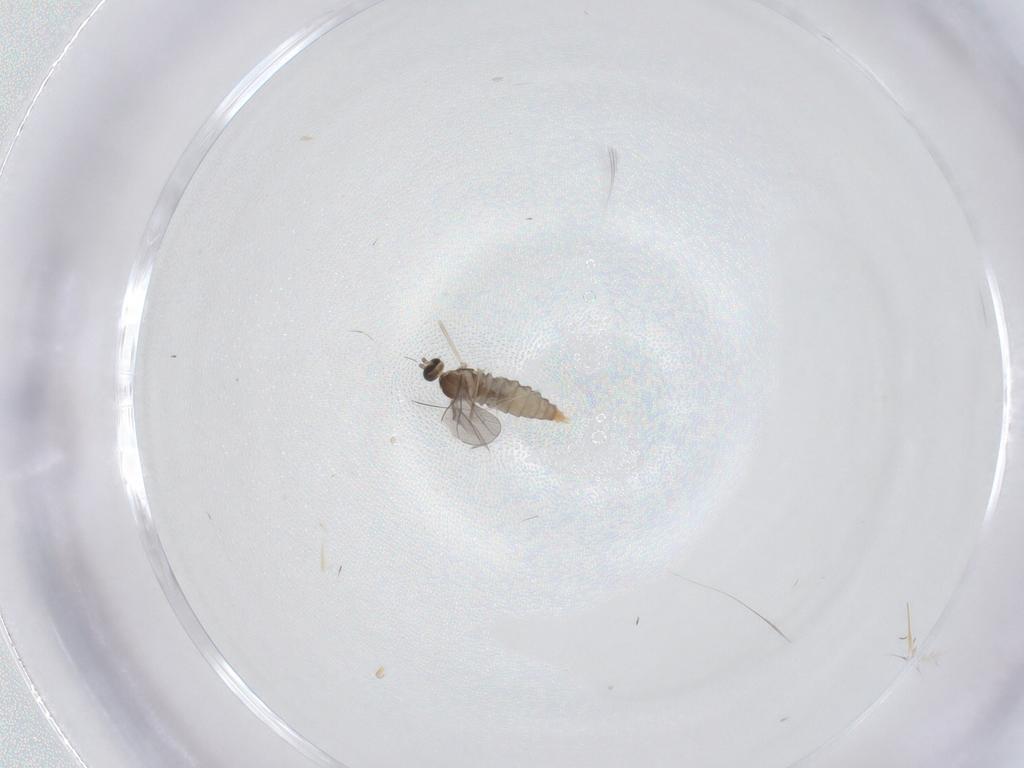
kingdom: Animalia
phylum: Arthropoda
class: Insecta
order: Diptera
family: Cecidomyiidae
